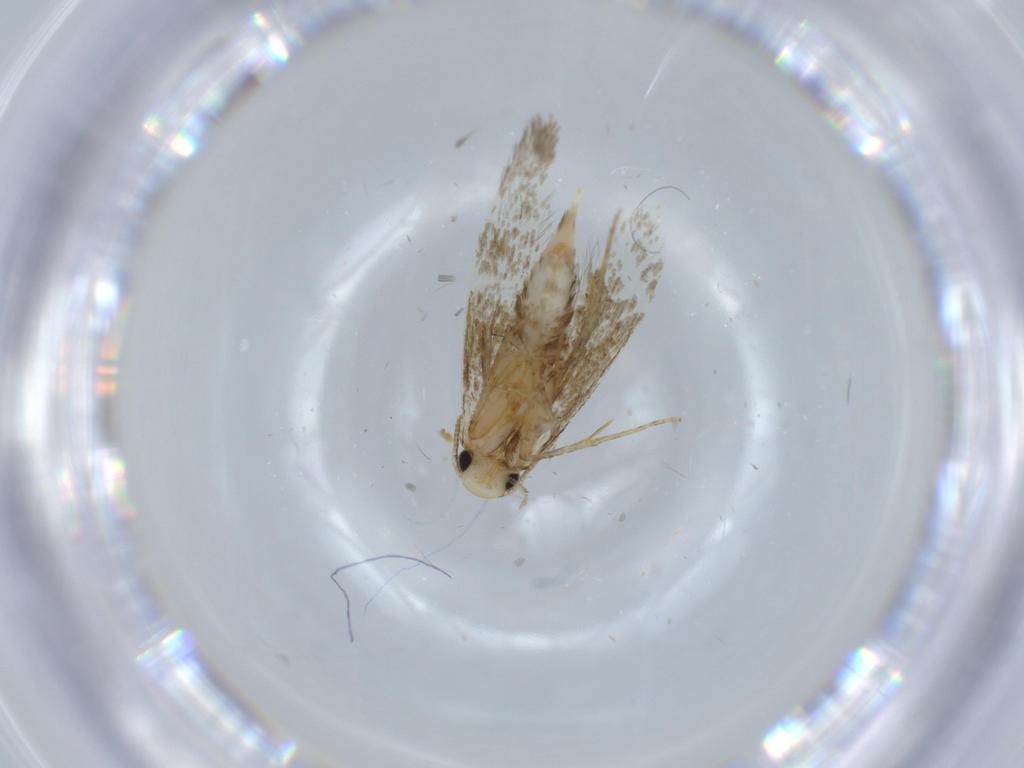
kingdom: Animalia
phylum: Arthropoda
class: Insecta
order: Lepidoptera
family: Tineidae
